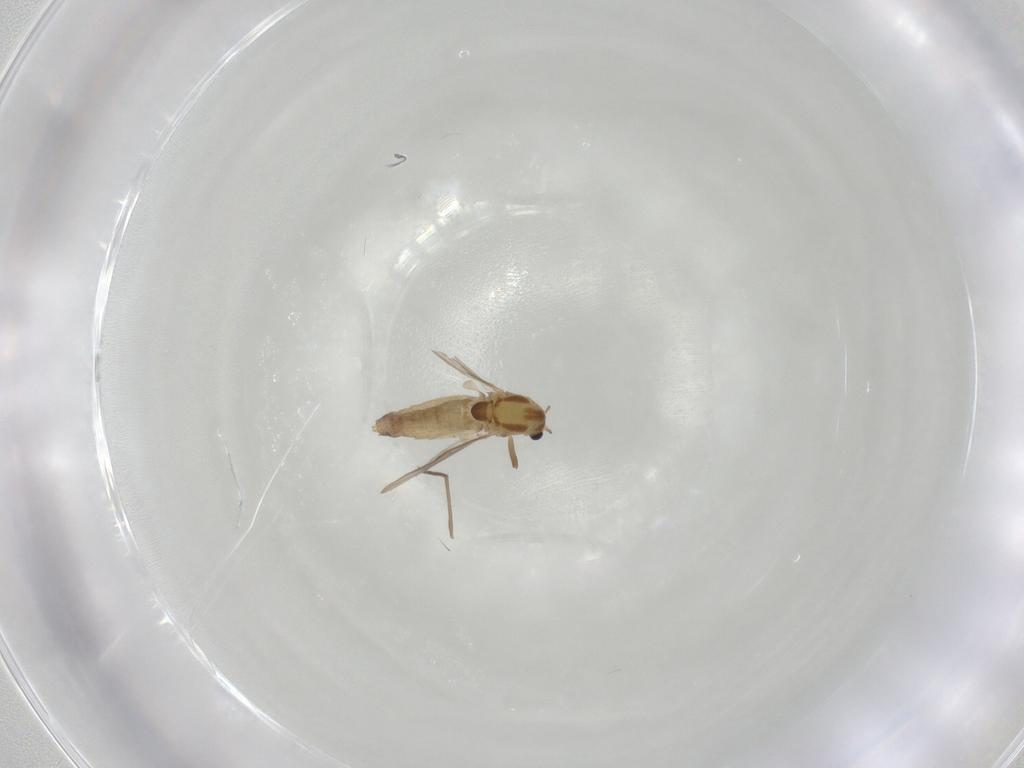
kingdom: Animalia
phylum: Arthropoda
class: Insecta
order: Diptera
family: Chironomidae
